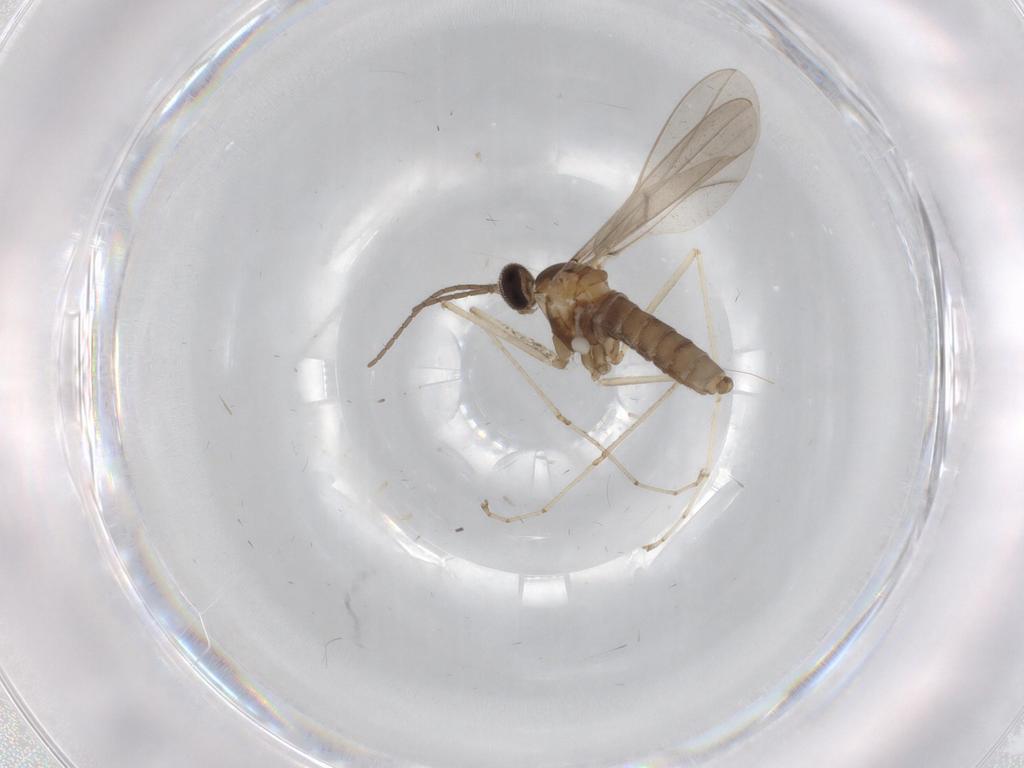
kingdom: Animalia
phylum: Arthropoda
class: Insecta
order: Diptera
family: Cecidomyiidae
